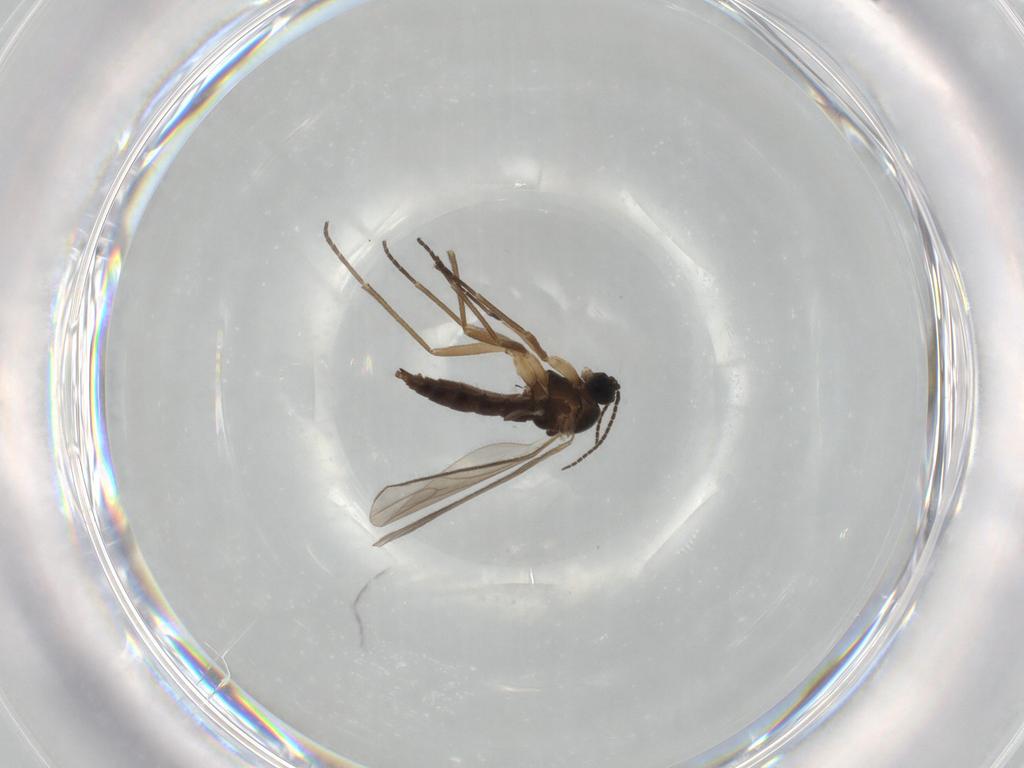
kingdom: Animalia
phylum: Arthropoda
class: Insecta
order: Diptera
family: Sciaridae
